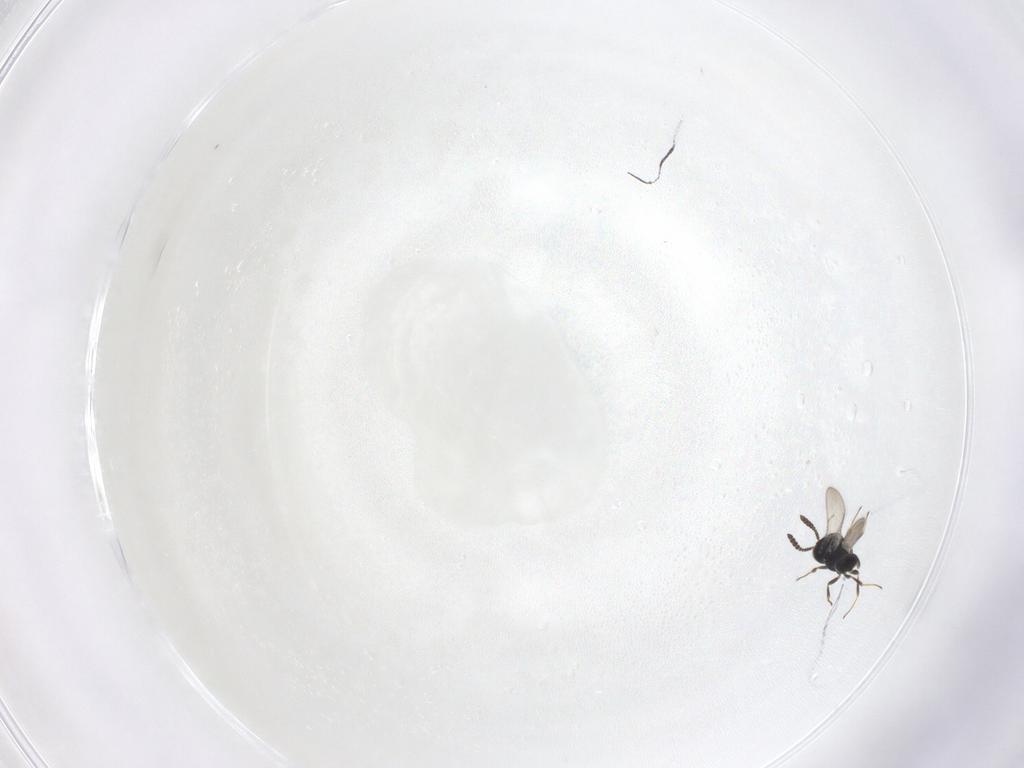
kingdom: Animalia
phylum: Arthropoda
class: Insecta
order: Hymenoptera
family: Scelionidae
